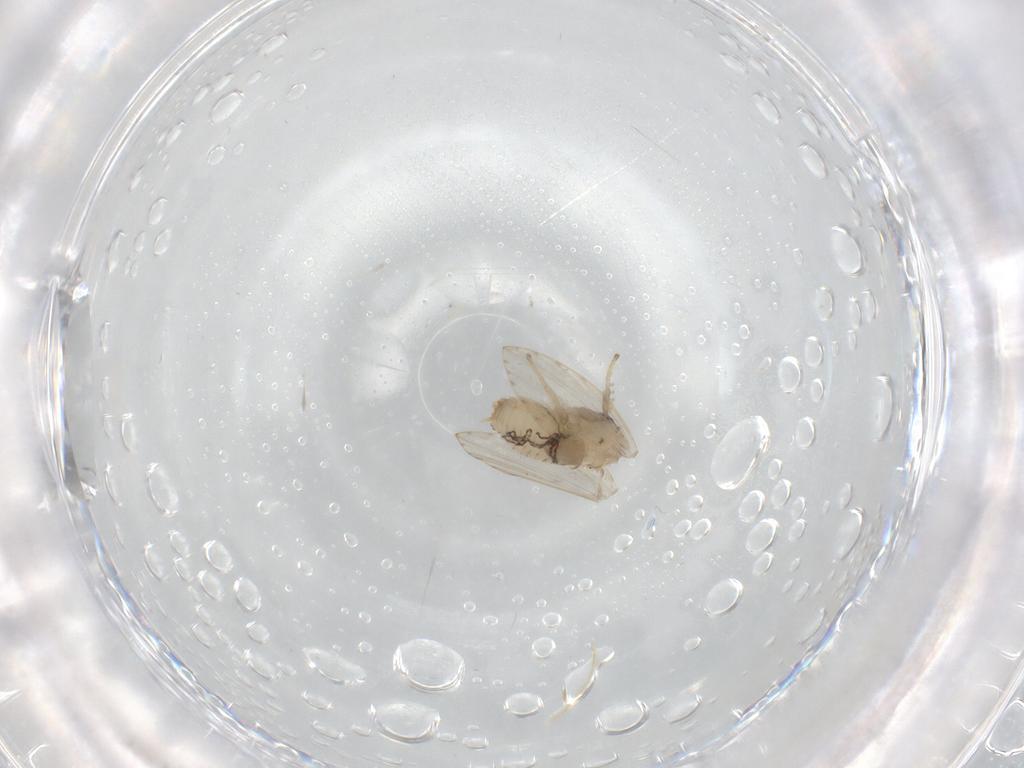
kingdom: Animalia
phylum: Arthropoda
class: Insecta
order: Diptera
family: Psychodidae
